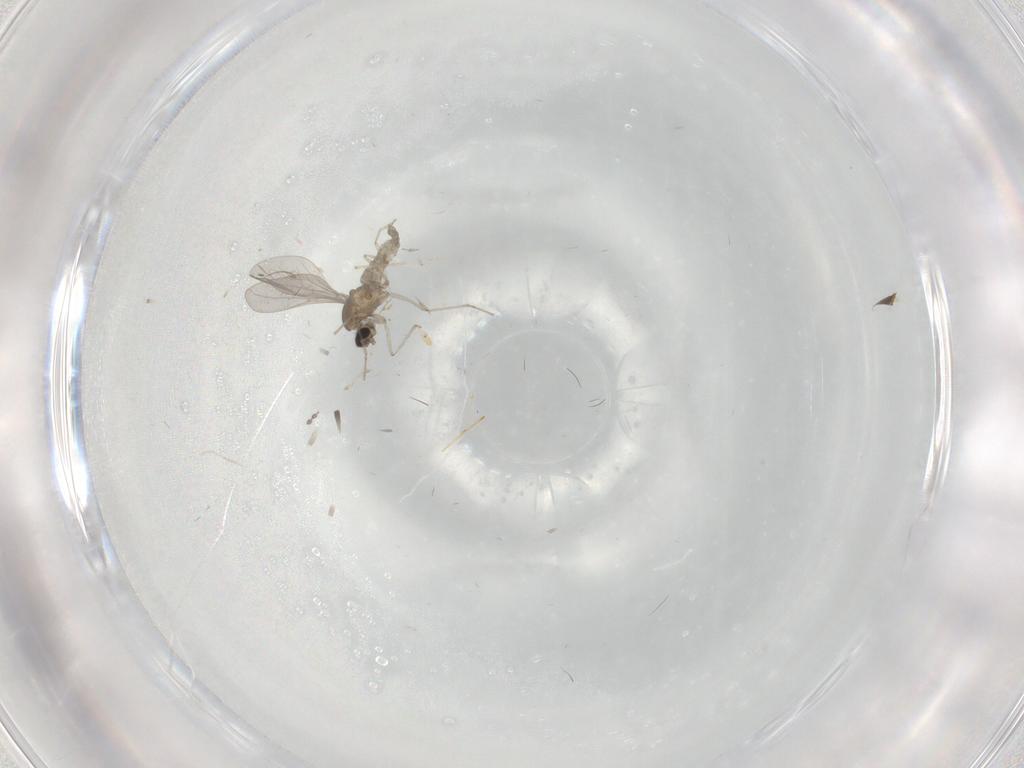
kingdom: Animalia
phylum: Arthropoda
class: Insecta
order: Diptera
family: Cecidomyiidae
